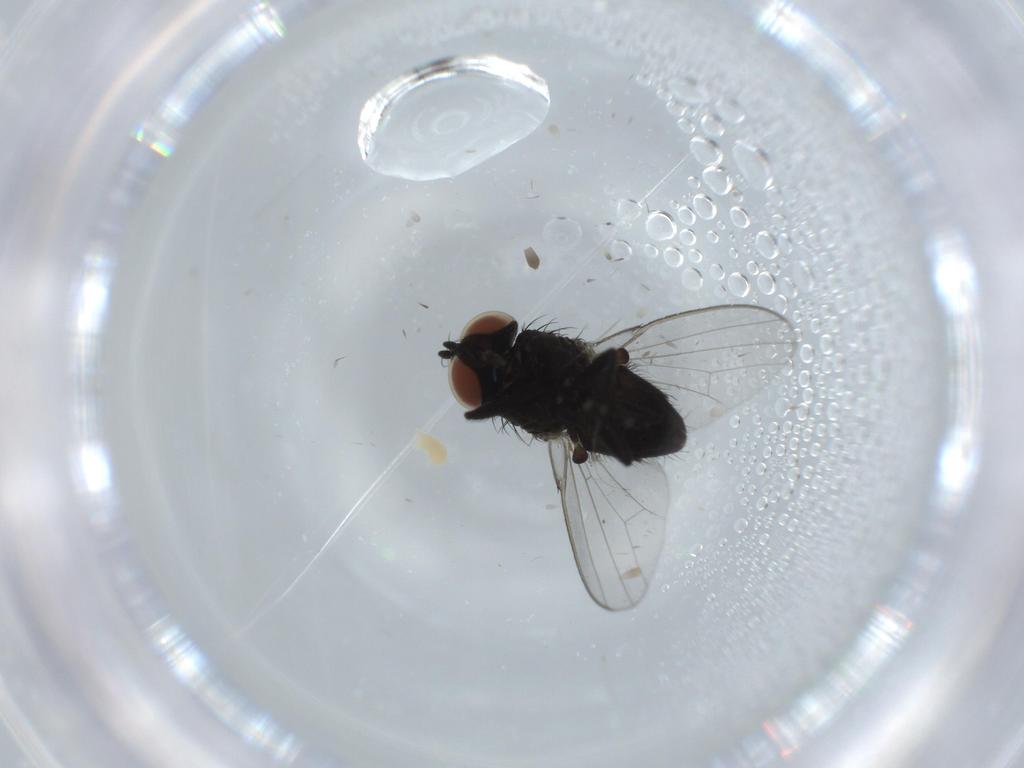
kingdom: Animalia
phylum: Arthropoda
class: Insecta
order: Diptera
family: Milichiidae
